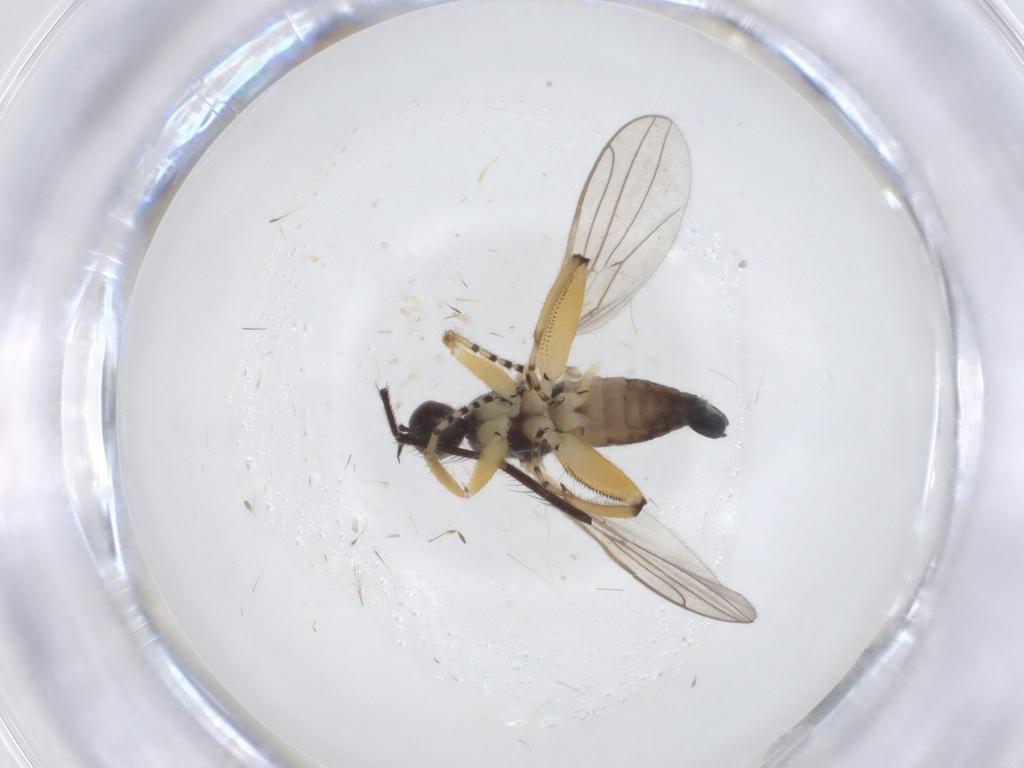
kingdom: Animalia
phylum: Arthropoda
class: Insecta
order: Diptera
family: Hybotidae
